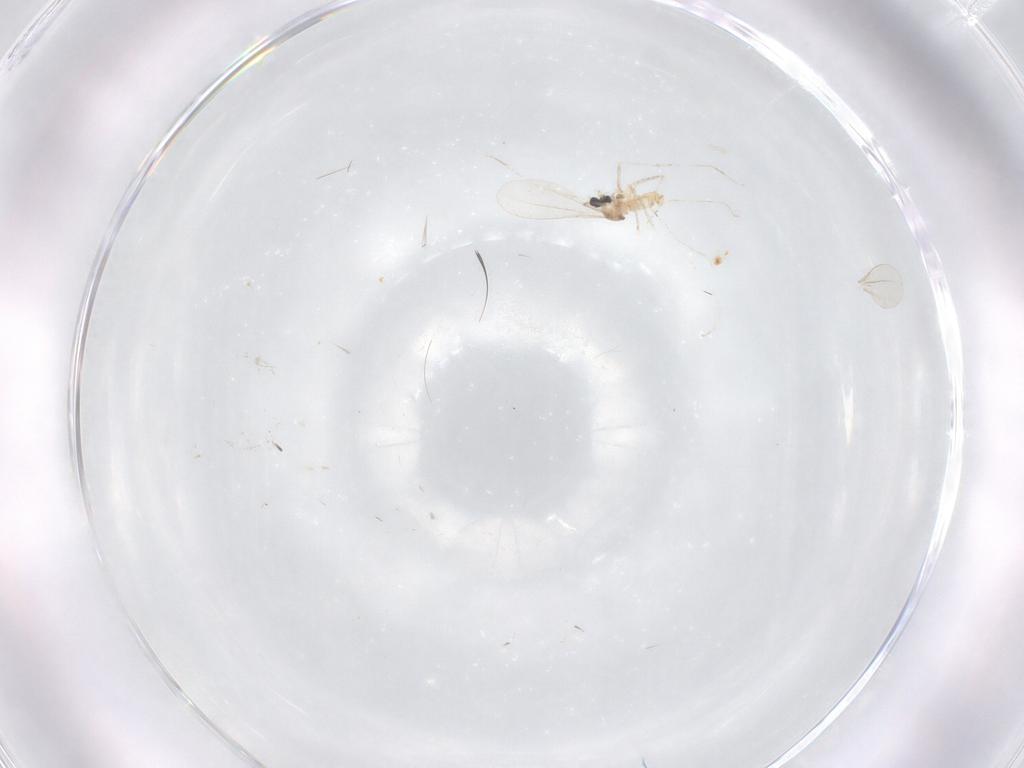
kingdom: Animalia
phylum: Arthropoda
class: Insecta
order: Diptera
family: Cecidomyiidae
